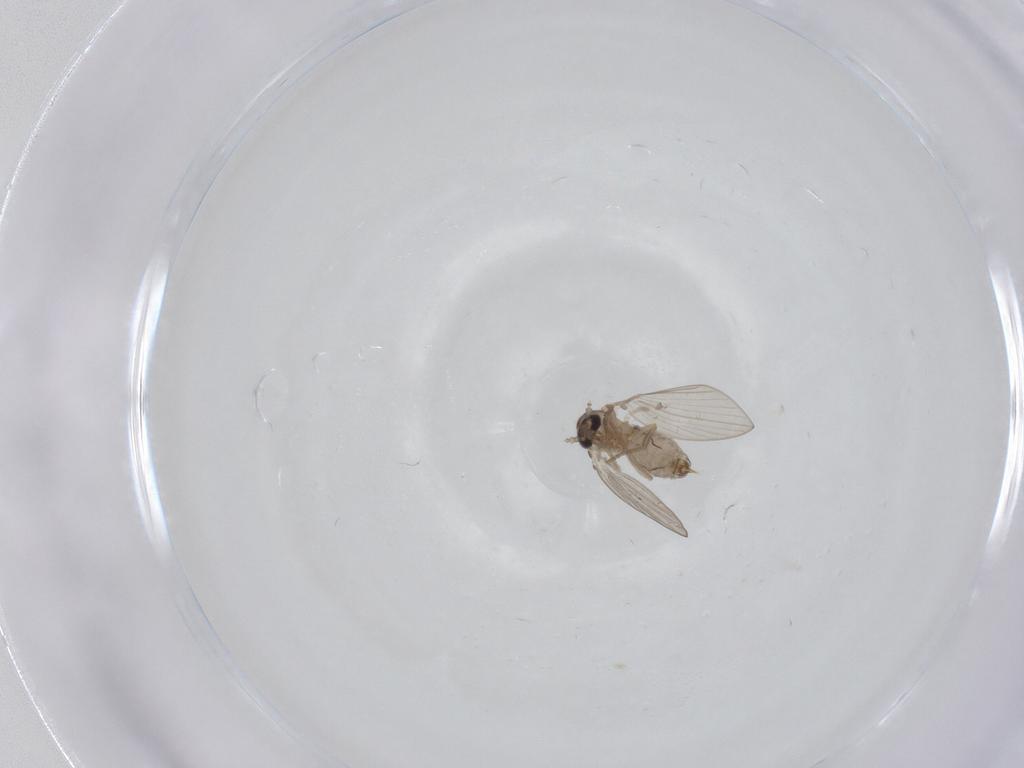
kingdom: Animalia
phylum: Arthropoda
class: Insecta
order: Diptera
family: Psychodidae
